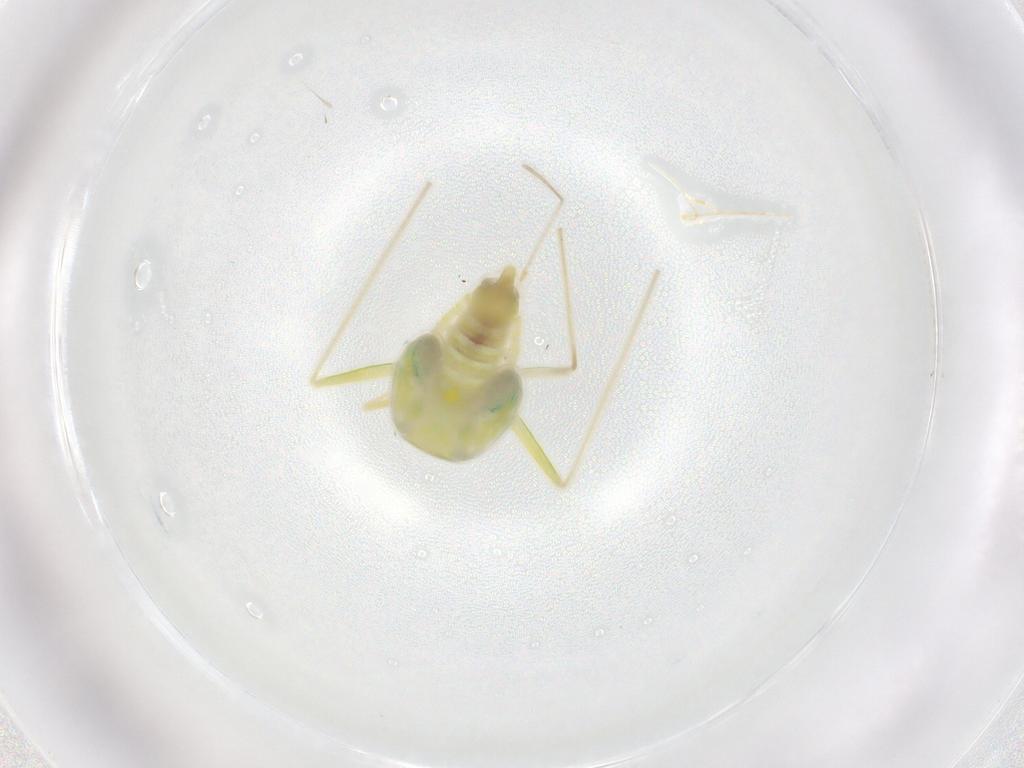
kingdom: Animalia
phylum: Arthropoda
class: Insecta
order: Hemiptera
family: Miridae
